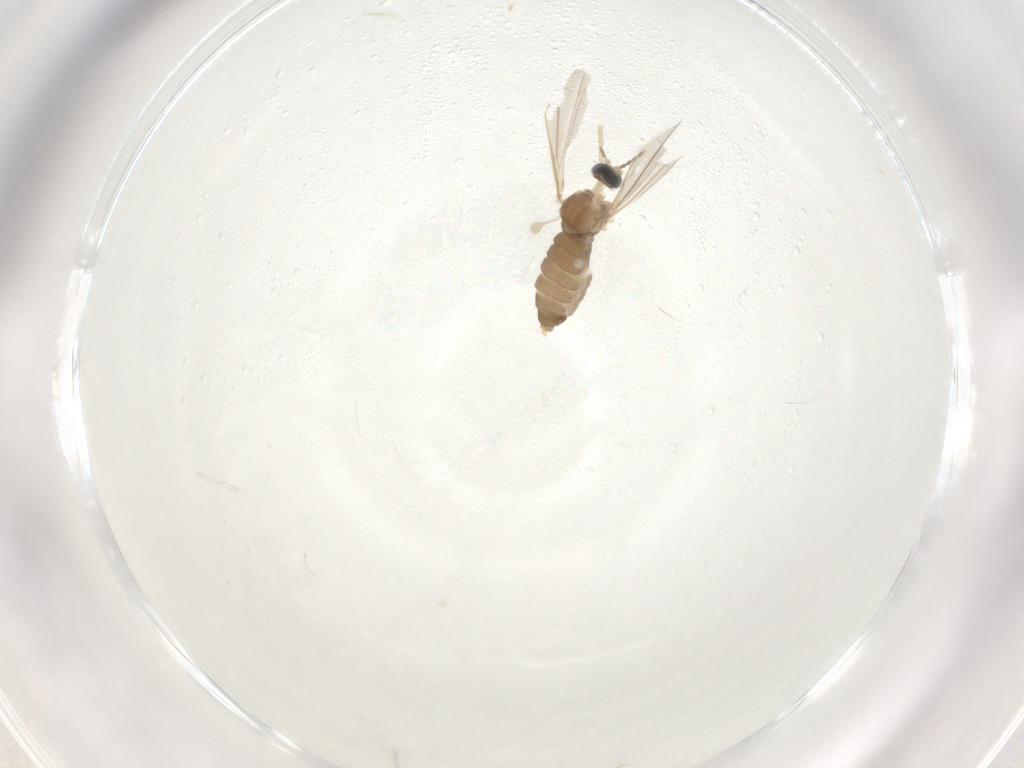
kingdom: Animalia
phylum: Arthropoda
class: Insecta
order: Diptera
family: Cecidomyiidae
